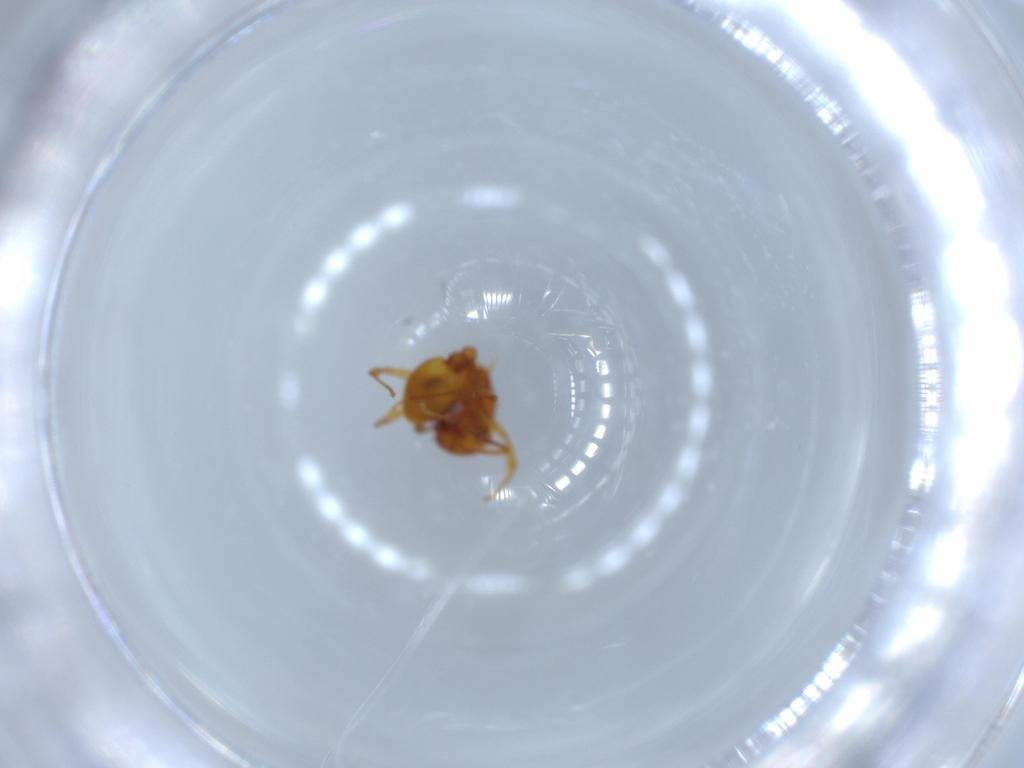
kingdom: Animalia
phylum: Arthropoda
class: Insecta
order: Hymenoptera
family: Formicidae
